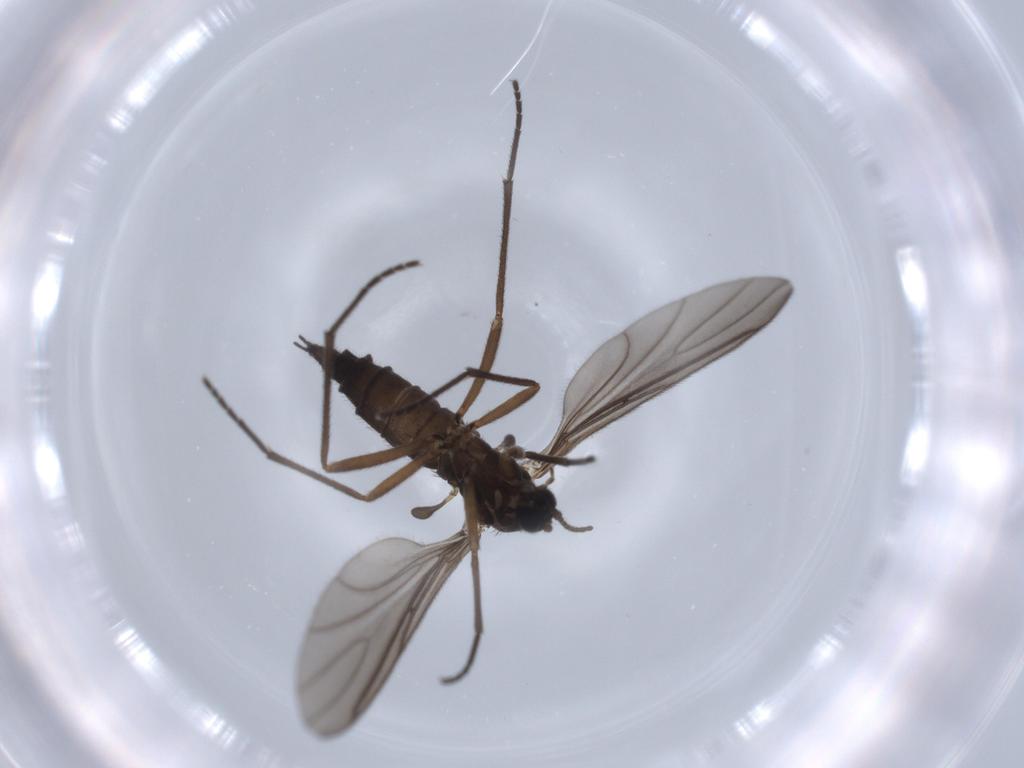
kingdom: Animalia
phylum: Arthropoda
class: Insecta
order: Diptera
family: Sciaridae
